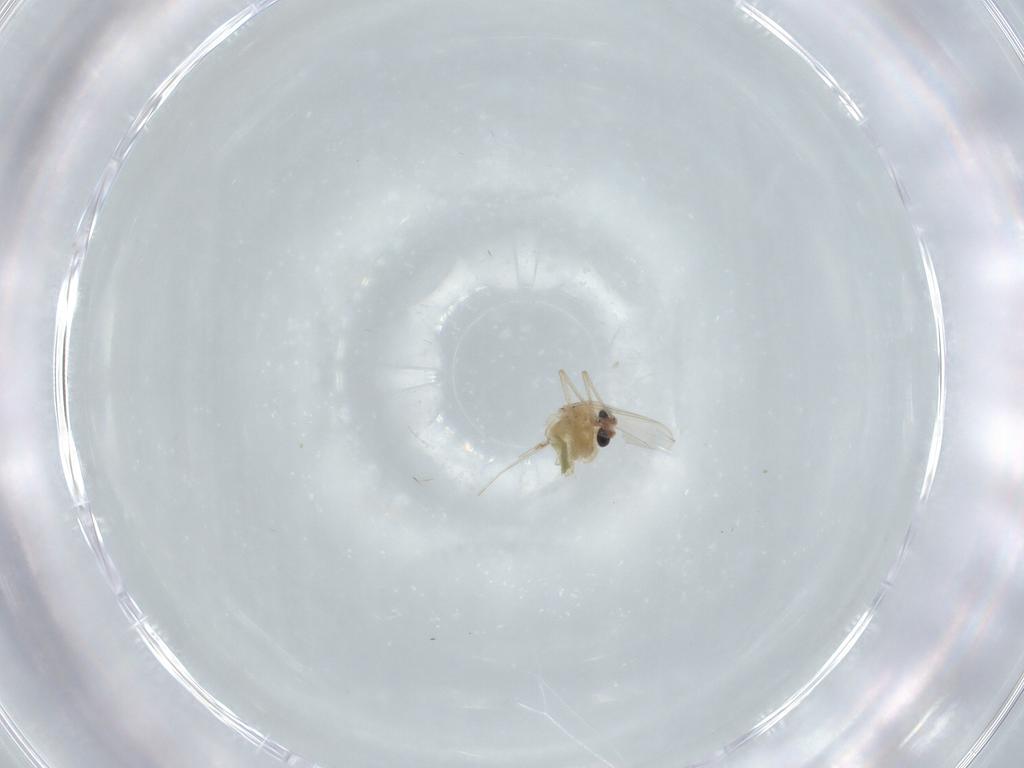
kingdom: Animalia
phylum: Arthropoda
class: Insecta
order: Diptera
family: Chironomidae
